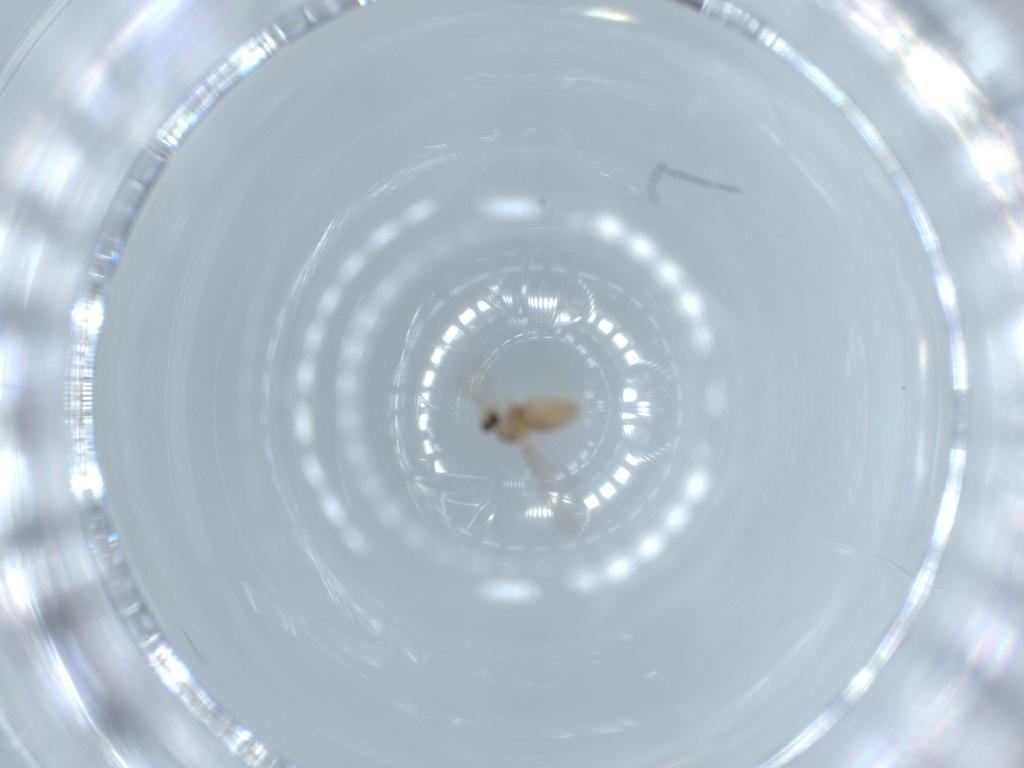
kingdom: Animalia
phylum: Arthropoda
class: Insecta
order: Diptera
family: Cecidomyiidae
